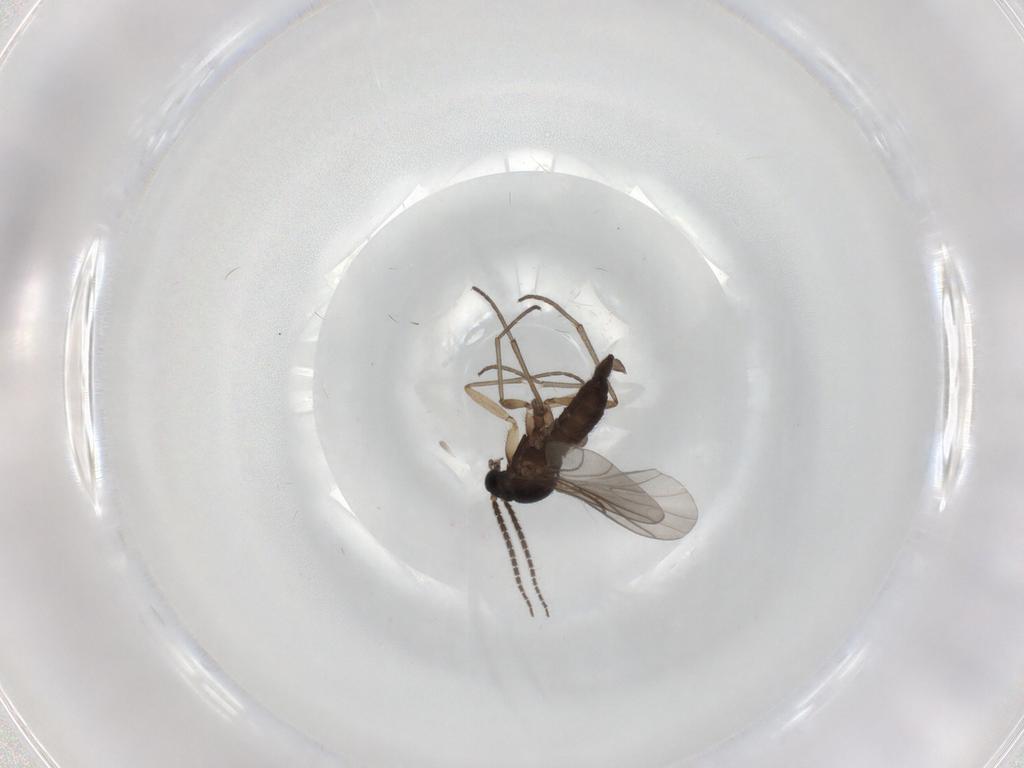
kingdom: Animalia
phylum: Arthropoda
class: Insecta
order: Diptera
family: Sciaridae
